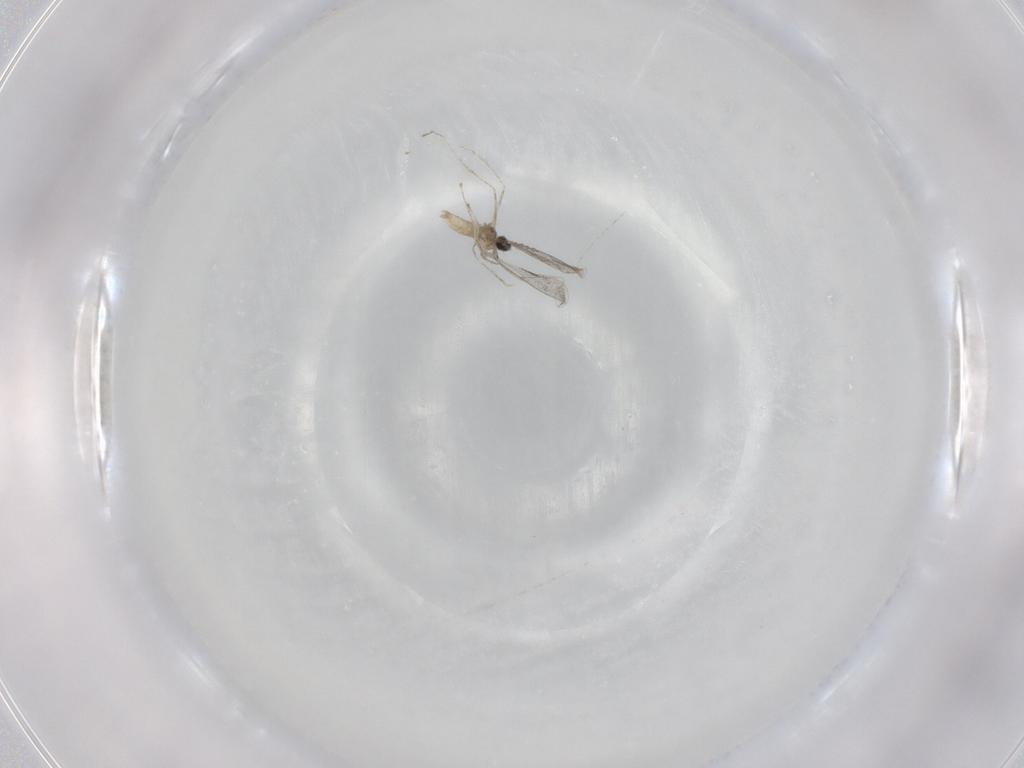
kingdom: Animalia
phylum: Arthropoda
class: Insecta
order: Diptera
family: Cecidomyiidae
